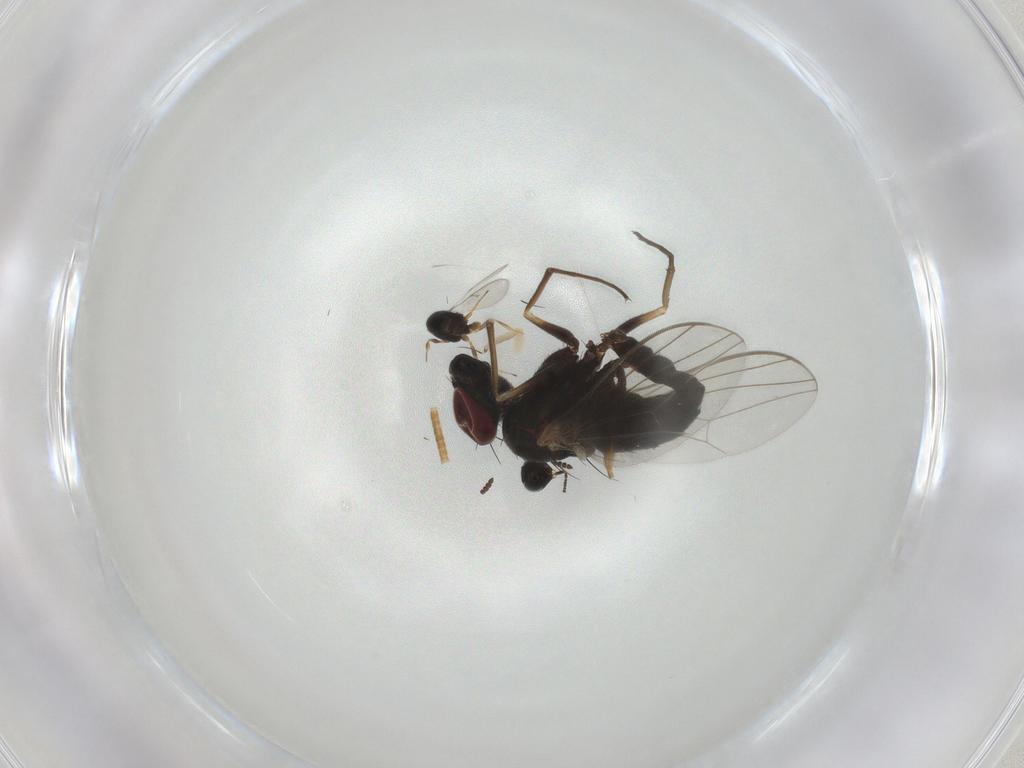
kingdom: Animalia
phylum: Arthropoda
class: Insecta
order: Diptera
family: Dolichopodidae
